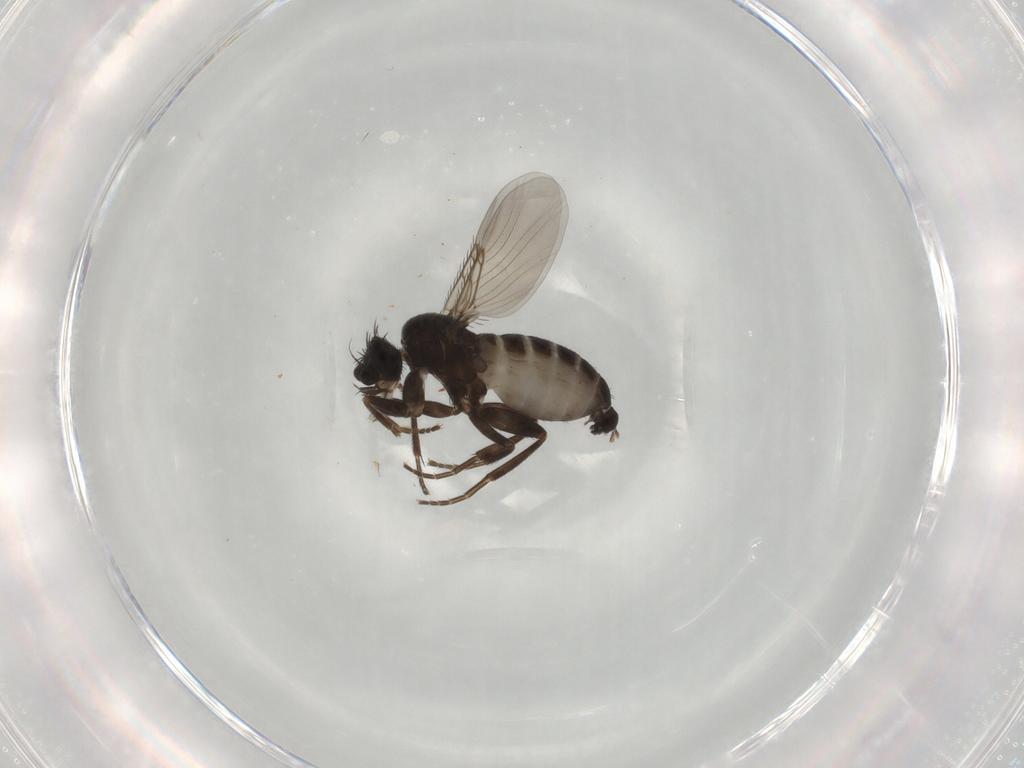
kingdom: Animalia
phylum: Arthropoda
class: Insecta
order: Diptera
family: Phoridae
